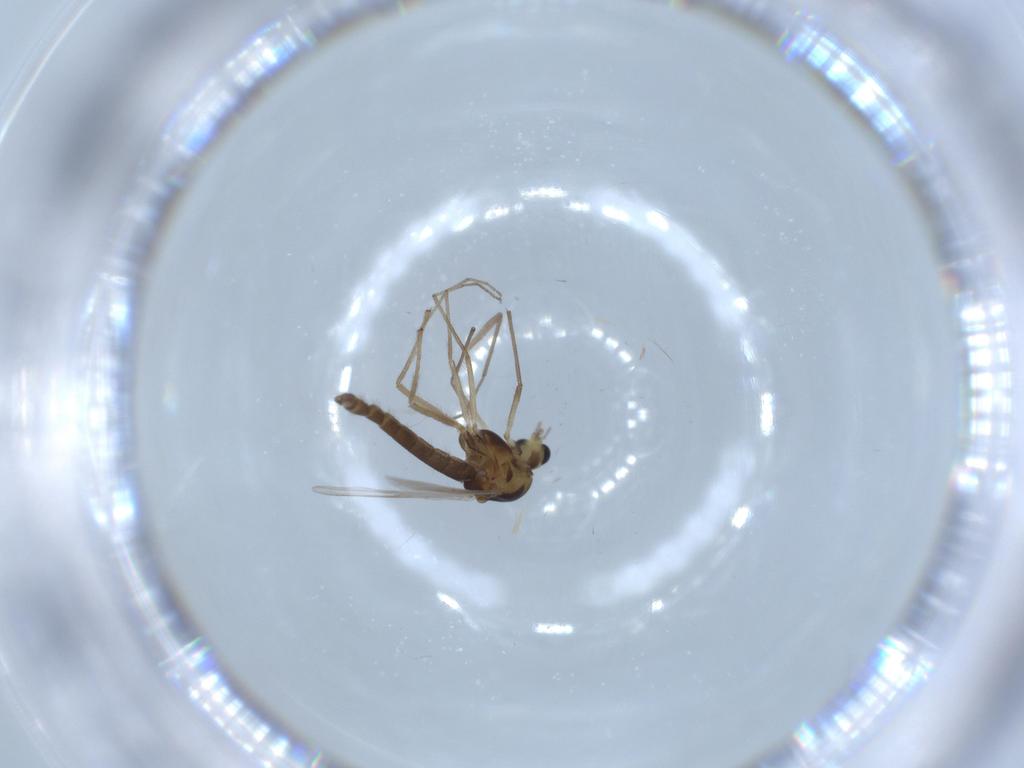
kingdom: Animalia
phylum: Arthropoda
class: Insecta
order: Diptera
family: Chironomidae
